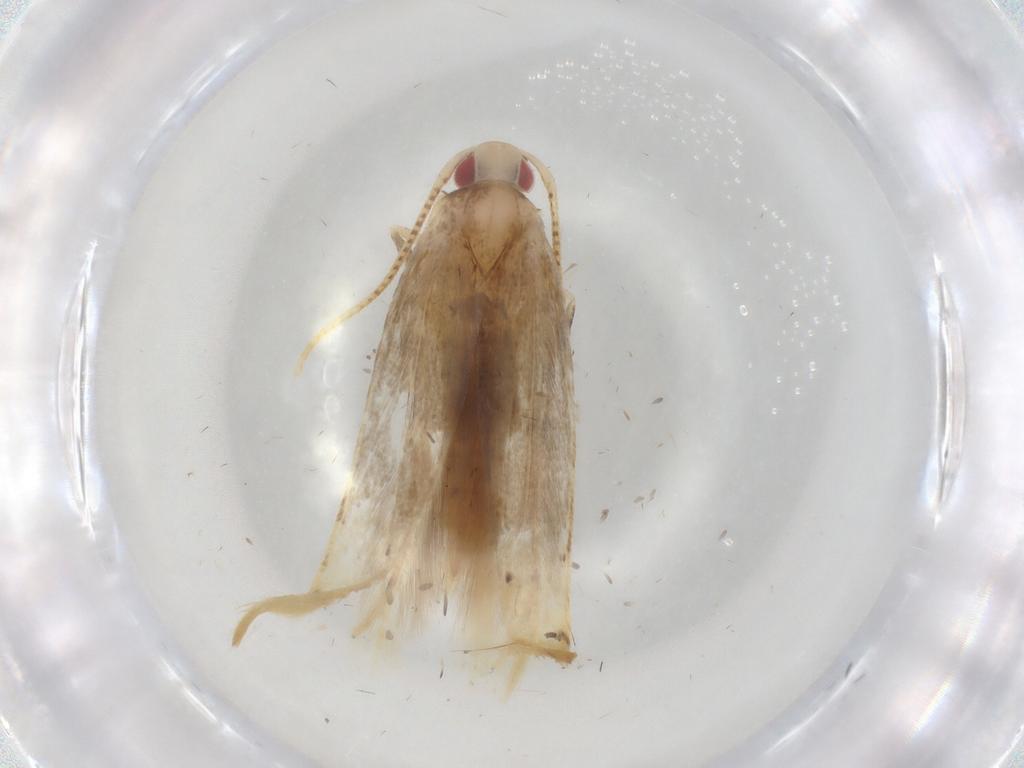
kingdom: Animalia
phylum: Arthropoda
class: Insecta
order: Lepidoptera
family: Cosmopterigidae
